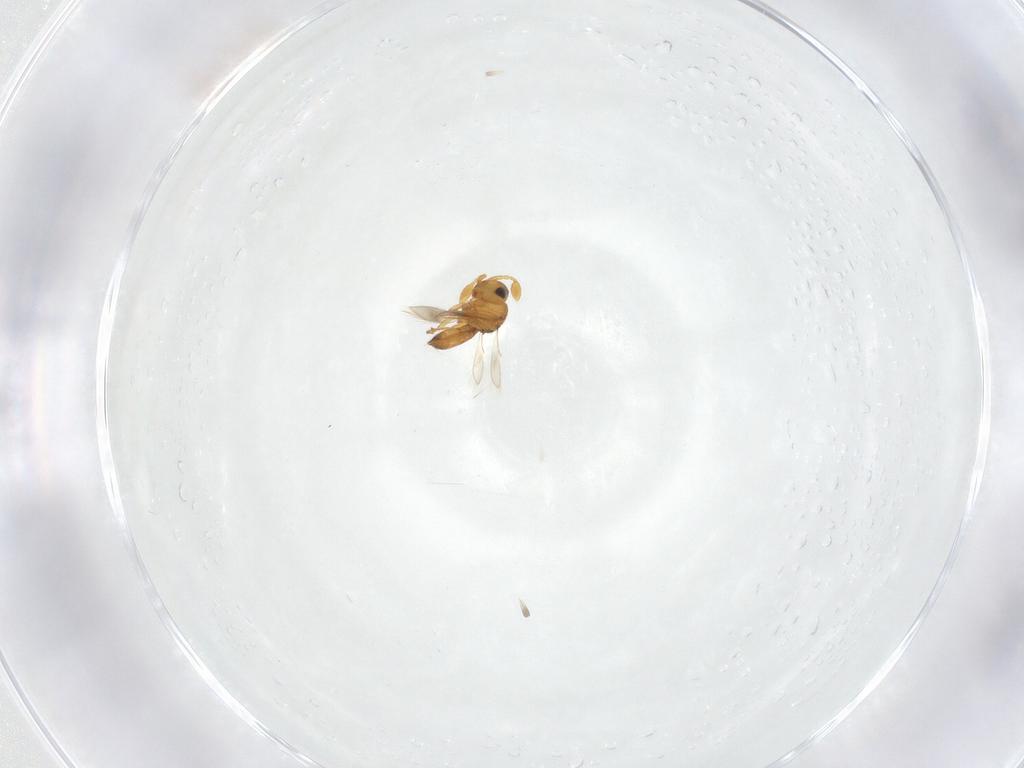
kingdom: Animalia
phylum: Arthropoda
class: Insecta
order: Hymenoptera
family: Scelionidae
